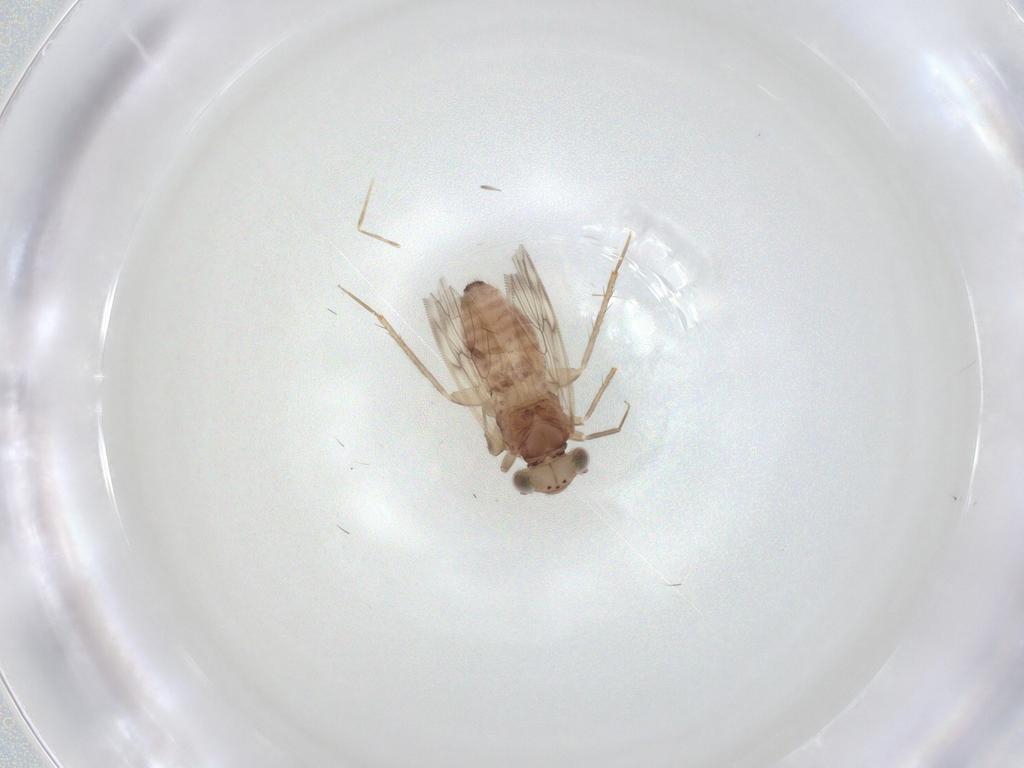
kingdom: Animalia
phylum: Arthropoda
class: Insecta
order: Psocodea
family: Lepidopsocidae
